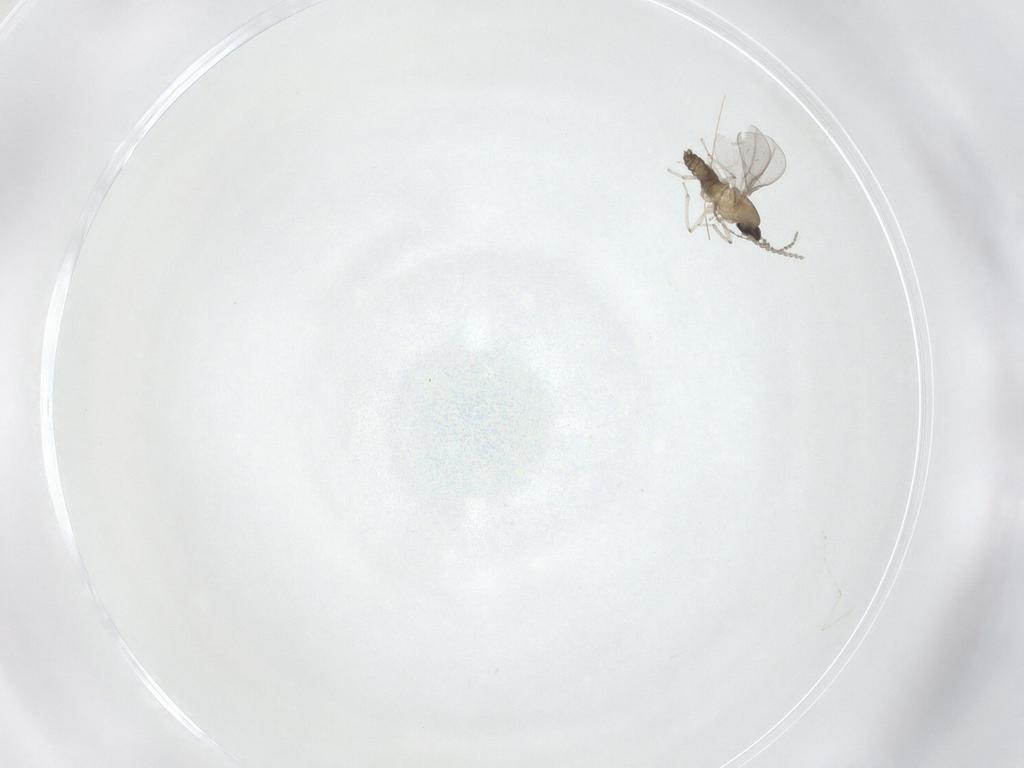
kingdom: Animalia
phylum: Arthropoda
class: Insecta
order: Diptera
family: Cecidomyiidae
